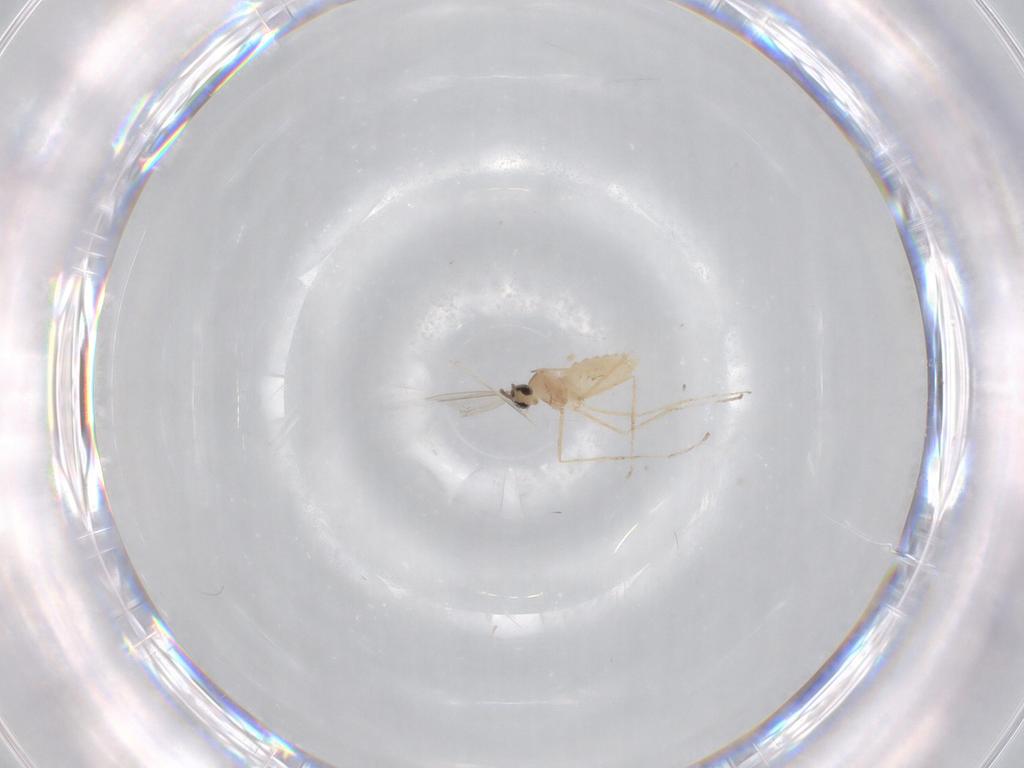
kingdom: Animalia
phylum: Arthropoda
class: Insecta
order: Diptera
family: Cecidomyiidae
